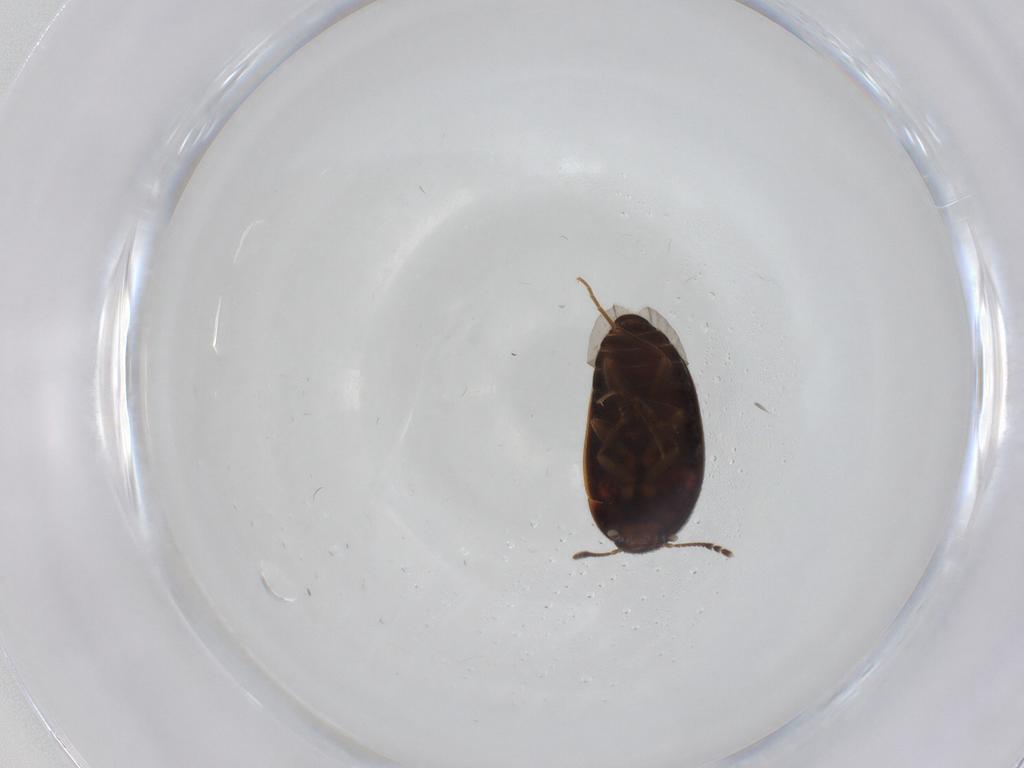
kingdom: Animalia
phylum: Arthropoda
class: Insecta
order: Coleoptera
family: Mycetophagidae
